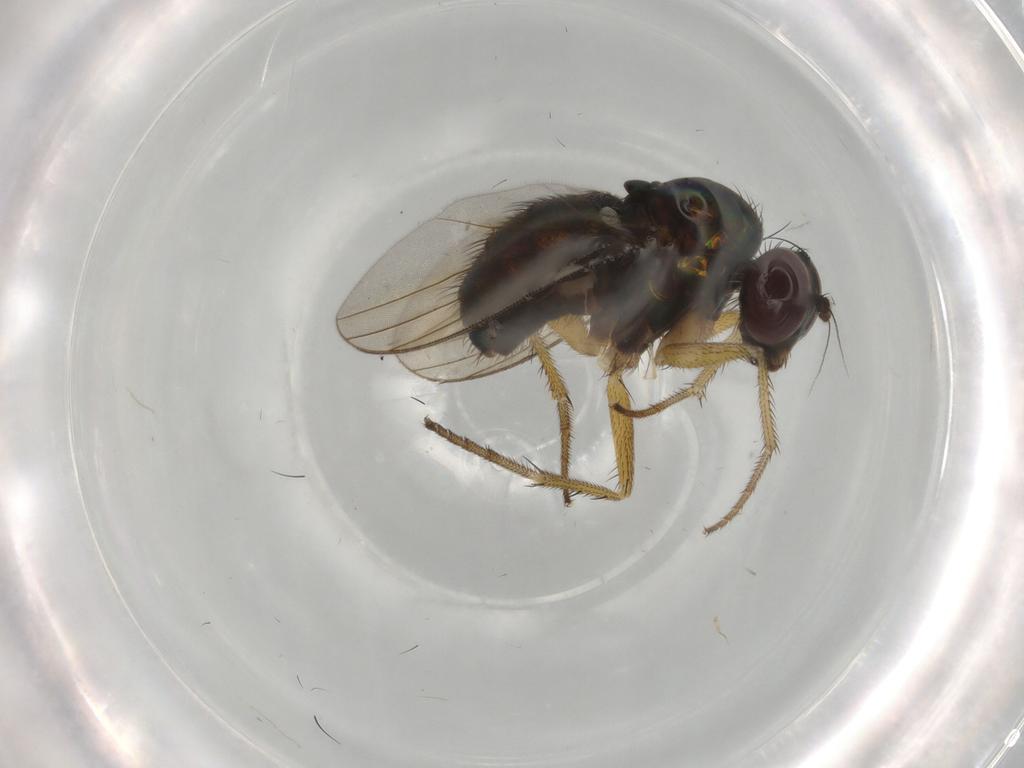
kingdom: Animalia
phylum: Arthropoda
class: Insecta
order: Diptera
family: Dolichopodidae
